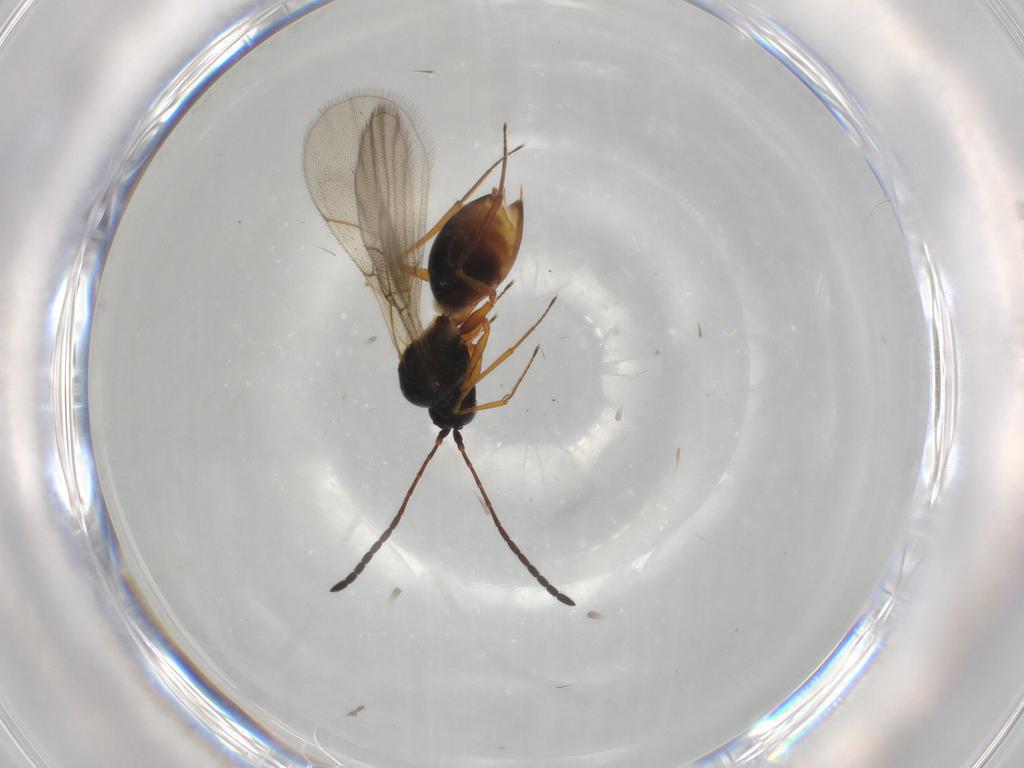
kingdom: Animalia
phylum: Arthropoda
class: Insecta
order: Hymenoptera
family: Figitidae
